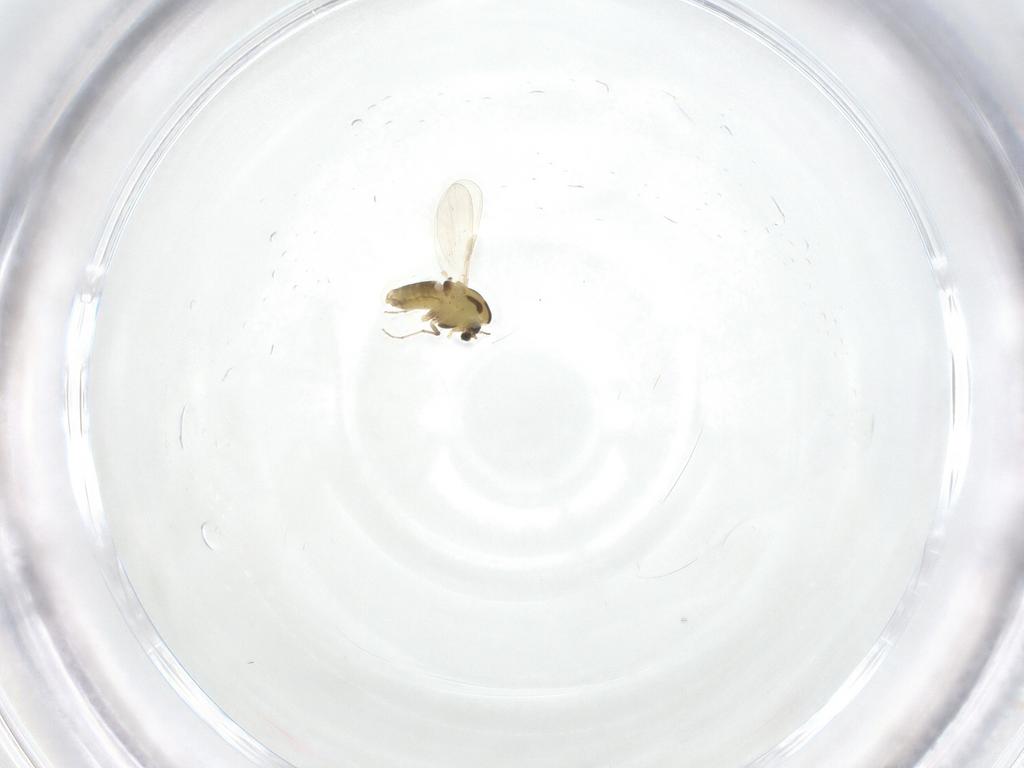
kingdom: Animalia
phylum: Arthropoda
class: Insecta
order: Diptera
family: Chironomidae
